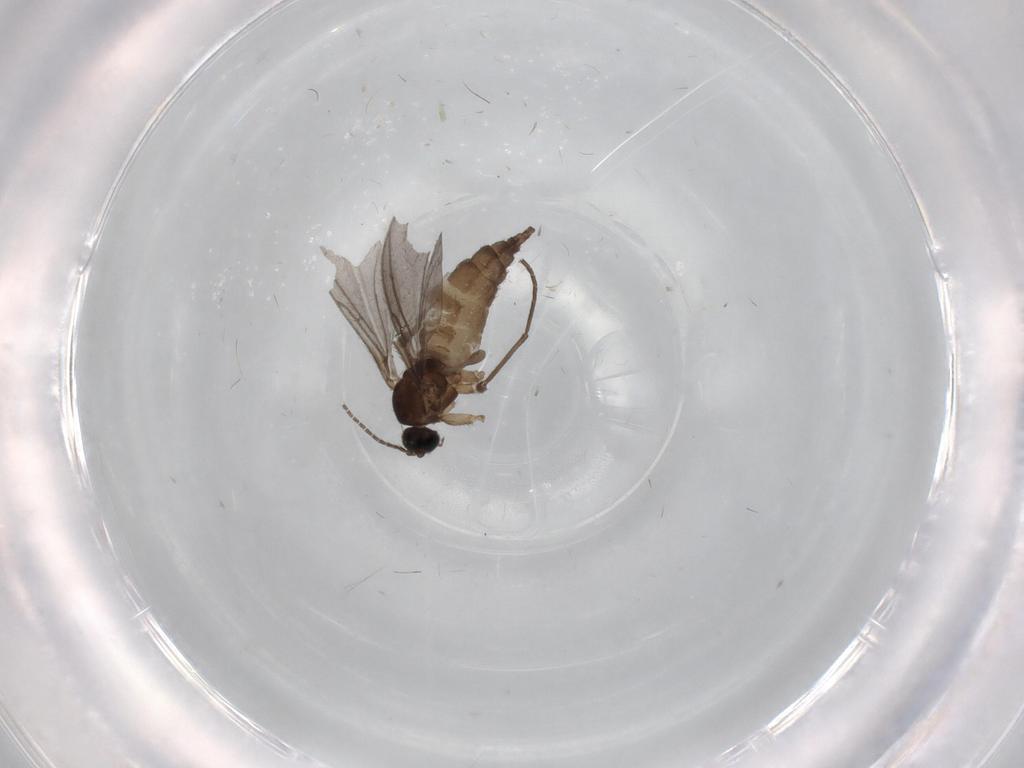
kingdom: Animalia
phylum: Arthropoda
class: Insecta
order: Diptera
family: Sciaridae
